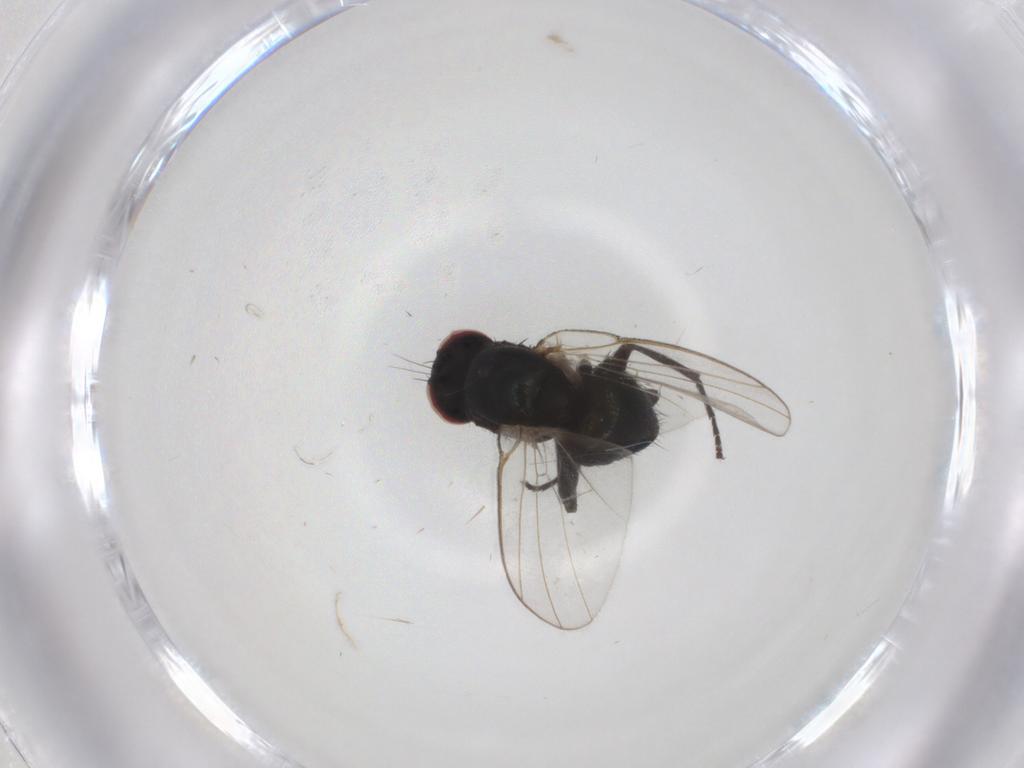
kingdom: Animalia
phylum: Arthropoda
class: Insecta
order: Diptera
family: Agromyzidae
